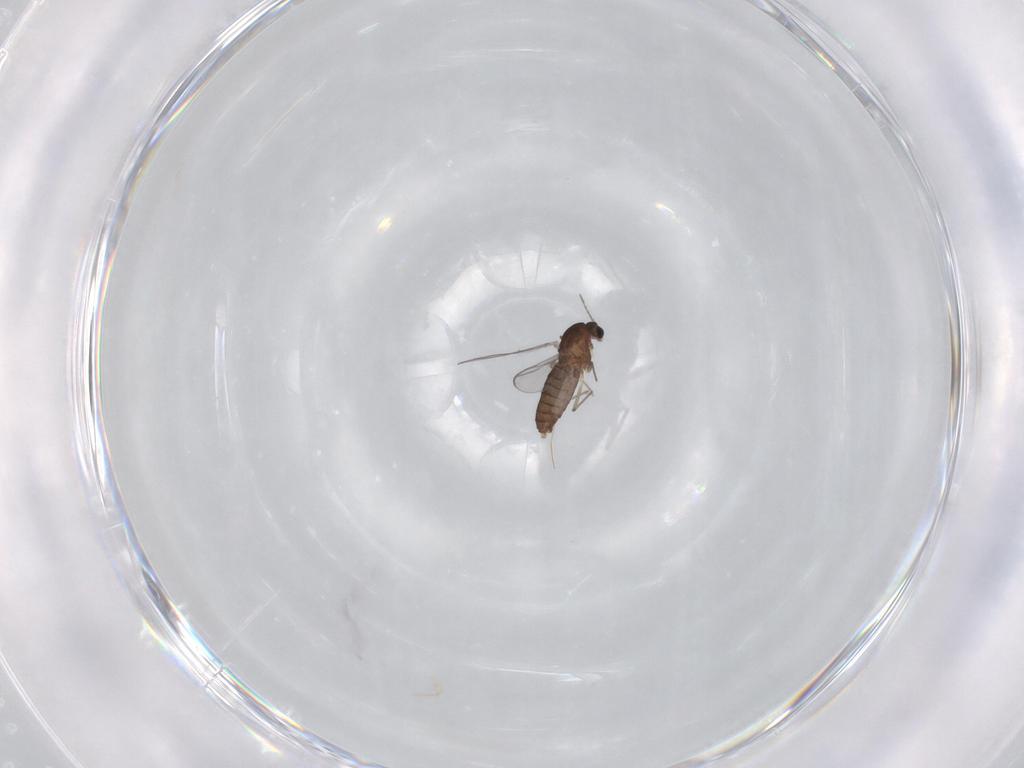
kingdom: Animalia
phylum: Arthropoda
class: Insecta
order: Diptera
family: Chironomidae
